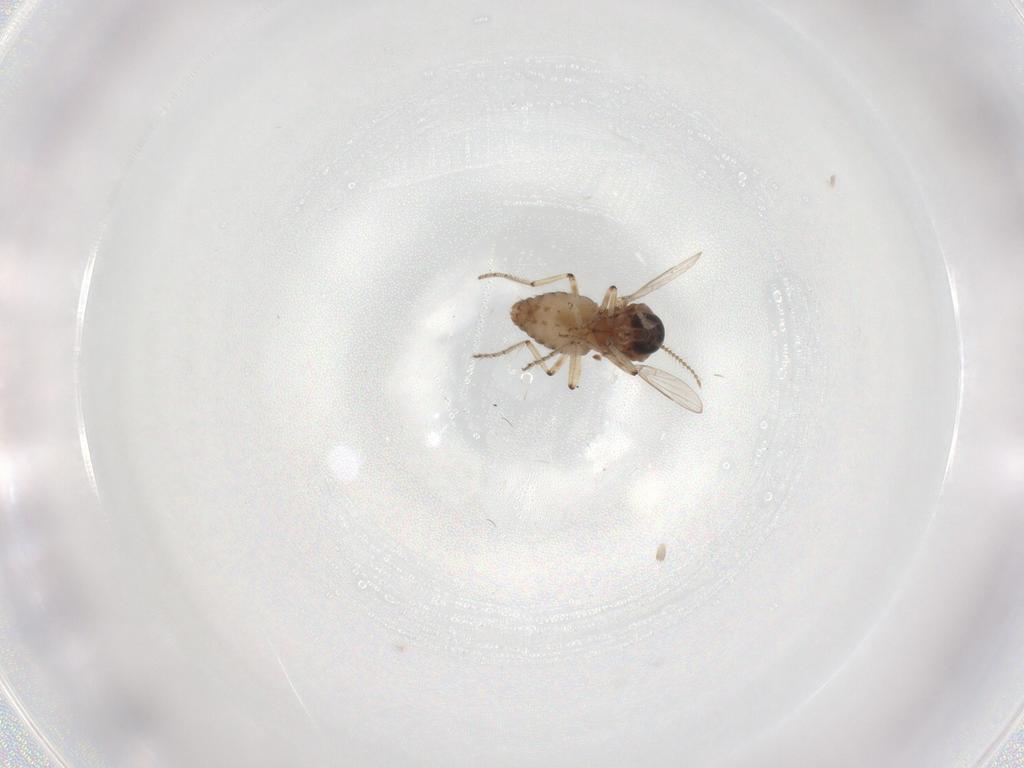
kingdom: Animalia
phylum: Arthropoda
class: Insecta
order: Diptera
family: Ceratopogonidae
